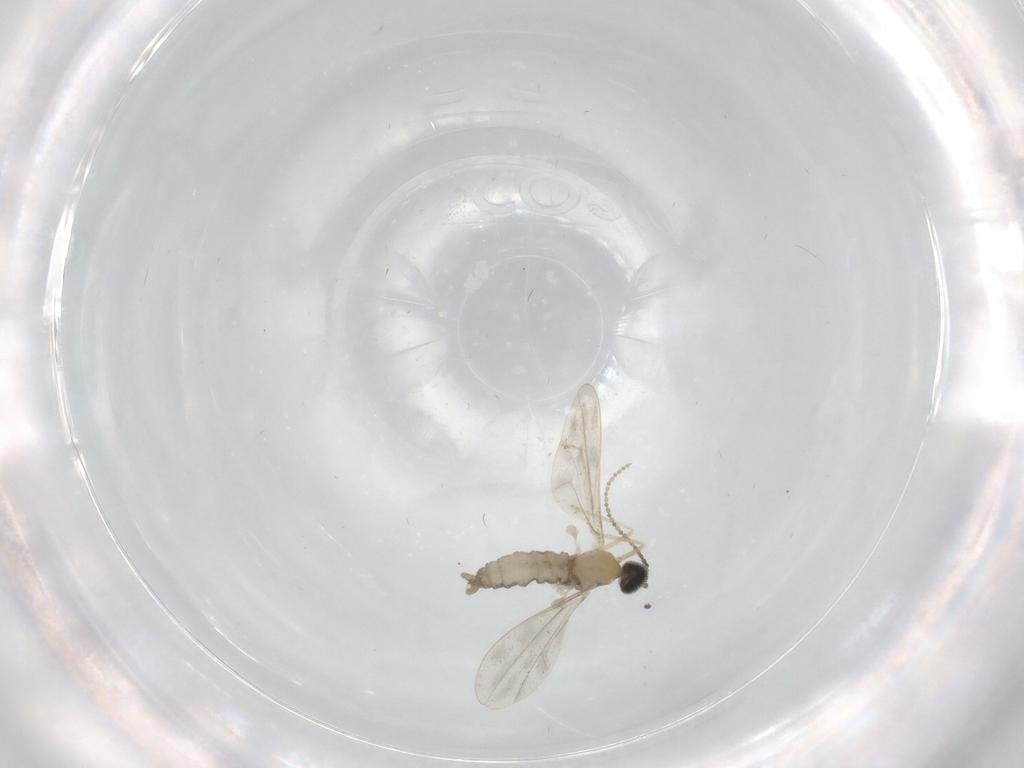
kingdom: Animalia
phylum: Arthropoda
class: Insecta
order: Diptera
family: Cecidomyiidae
